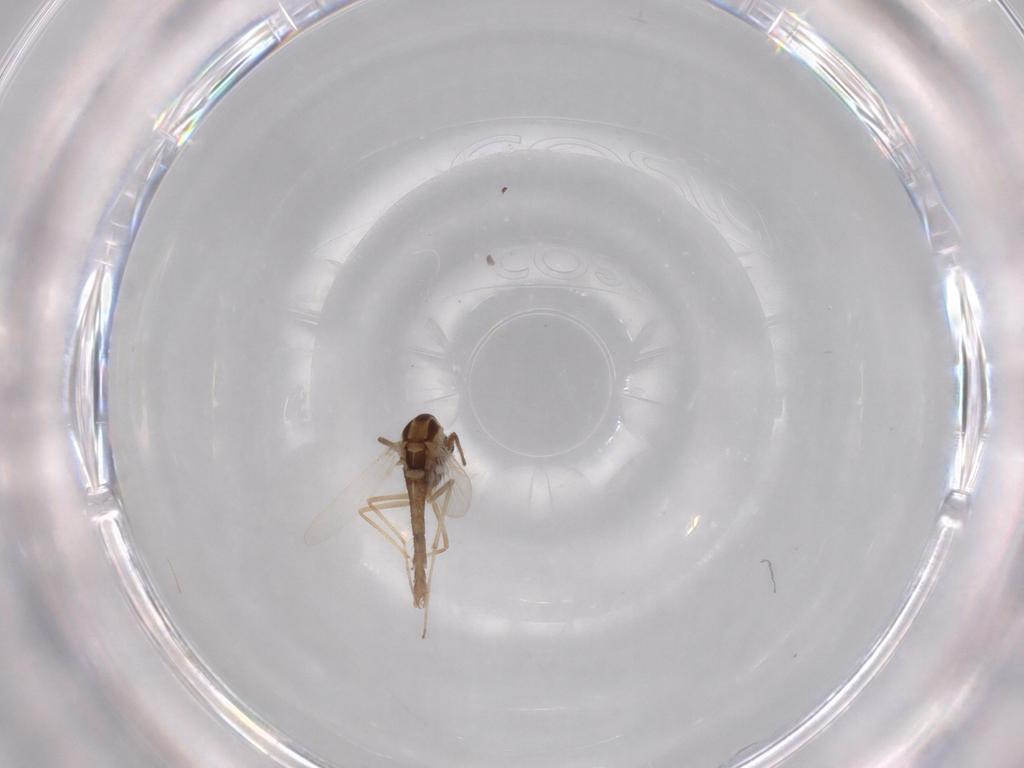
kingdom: Animalia
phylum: Arthropoda
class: Insecta
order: Diptera
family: Chironomidae
